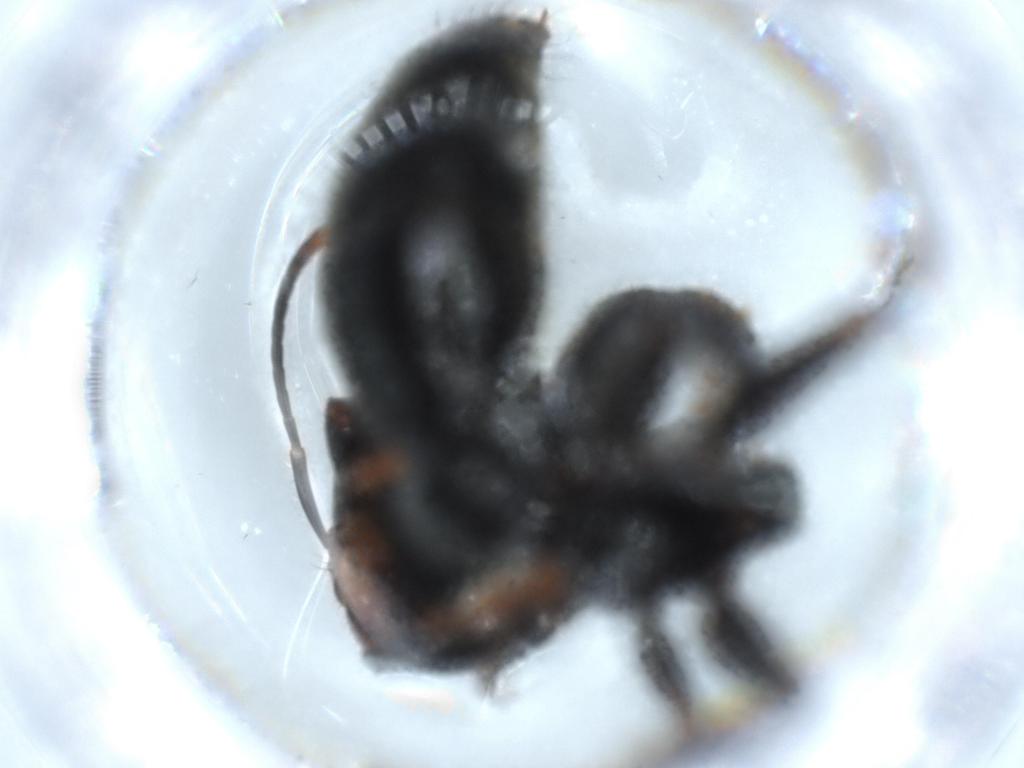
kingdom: Animalia
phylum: Arthropoda
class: Insecta
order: Hymenoptera
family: Formicidae
